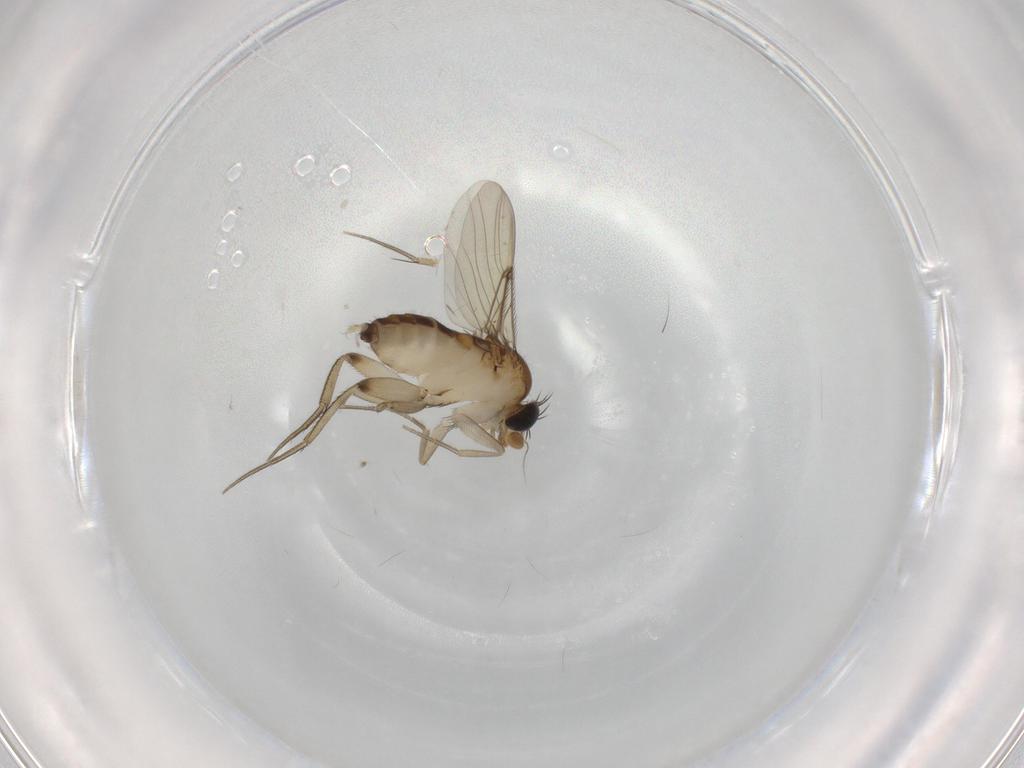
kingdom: Animalia
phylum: Arthropoda
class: Insecta
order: Diptera
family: Phoridae
